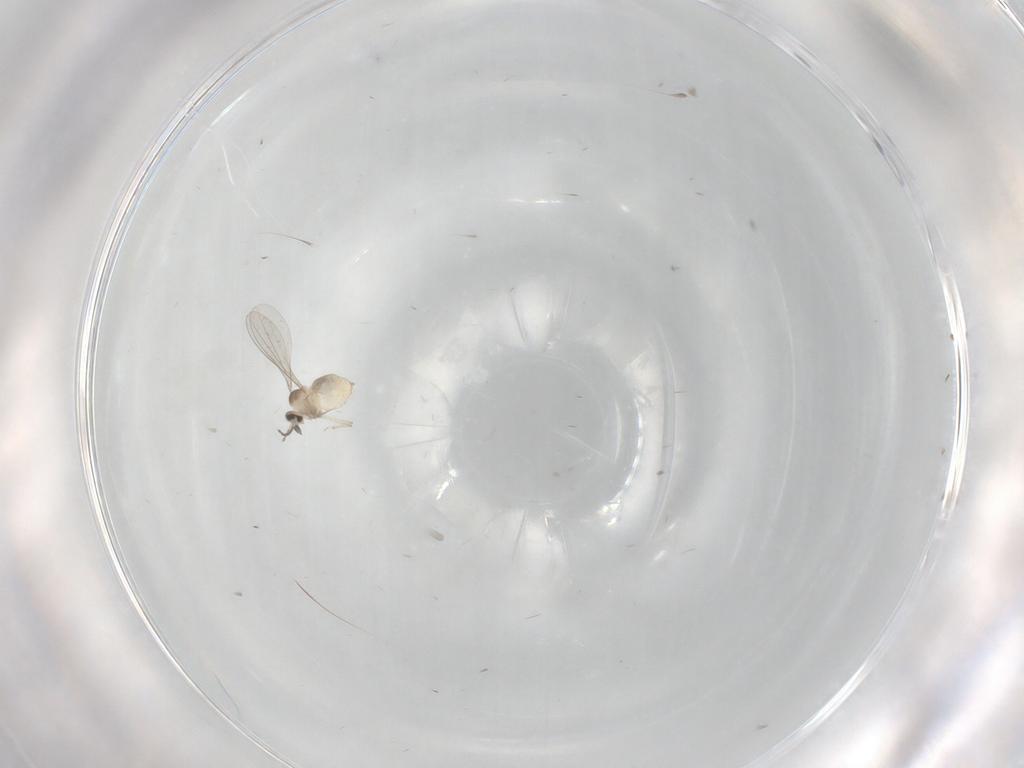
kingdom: Animalia
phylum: Arthropoda
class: Insecta
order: Diptera
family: Cecidomyiidae
